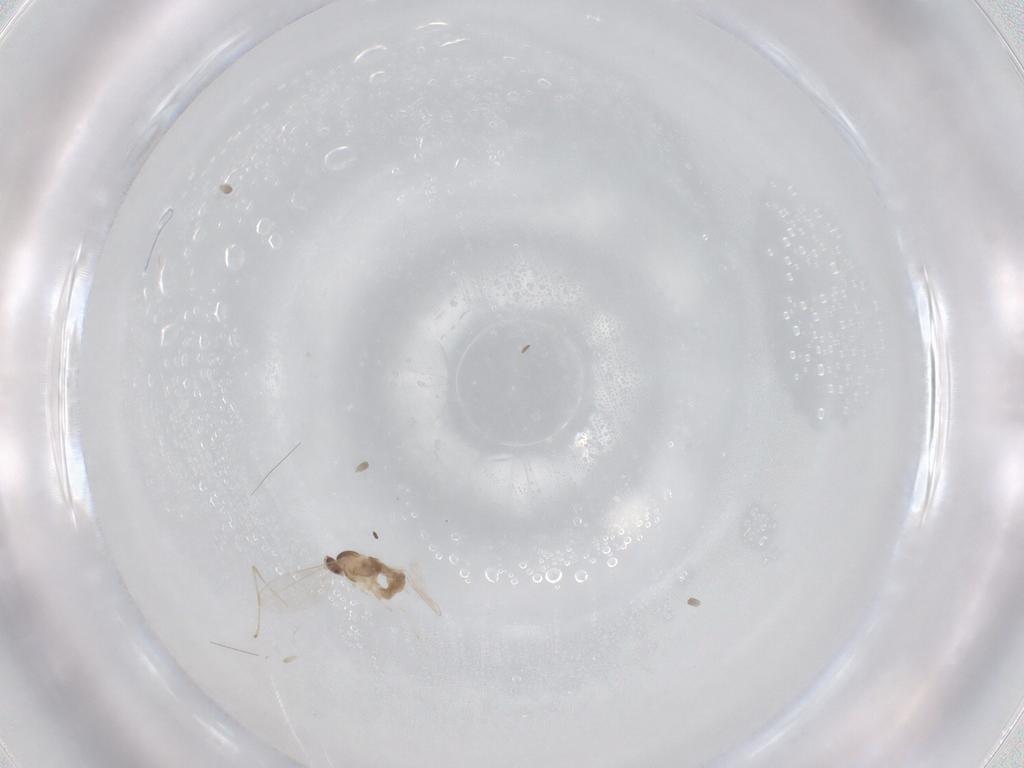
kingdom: Animalia
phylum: Arthropoda
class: Insecta
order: Diptera
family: Cecidomyiidae
